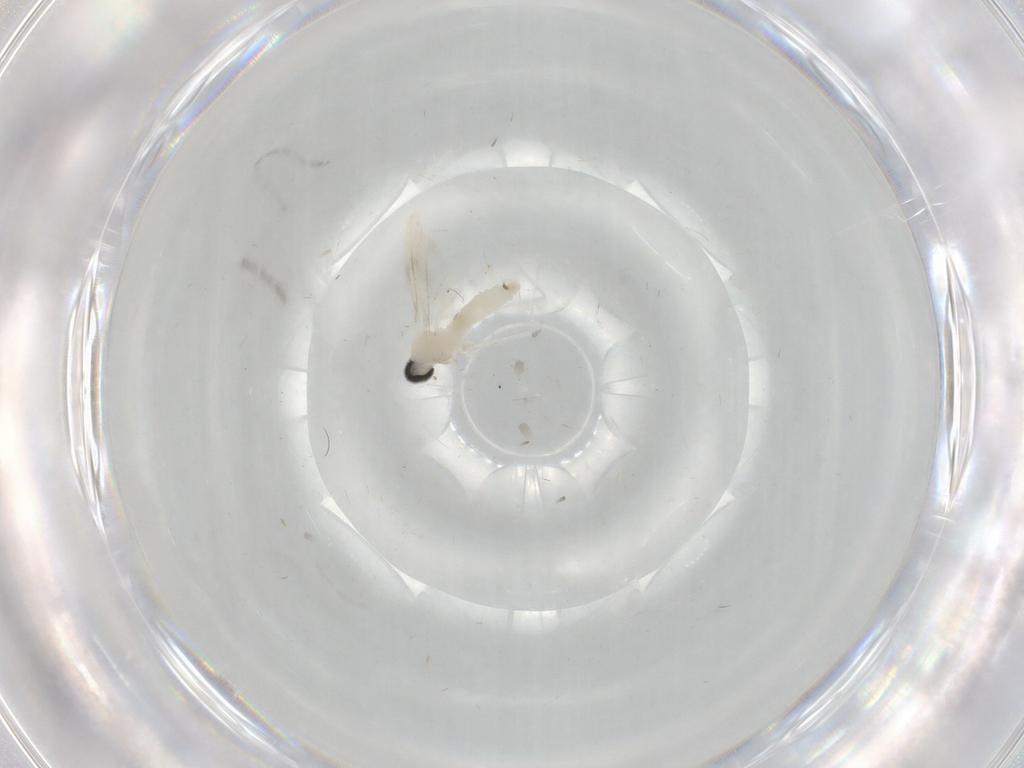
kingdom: Animalia
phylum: Arthropoda
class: Insecta
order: Diptera
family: Cecidomyiidae
